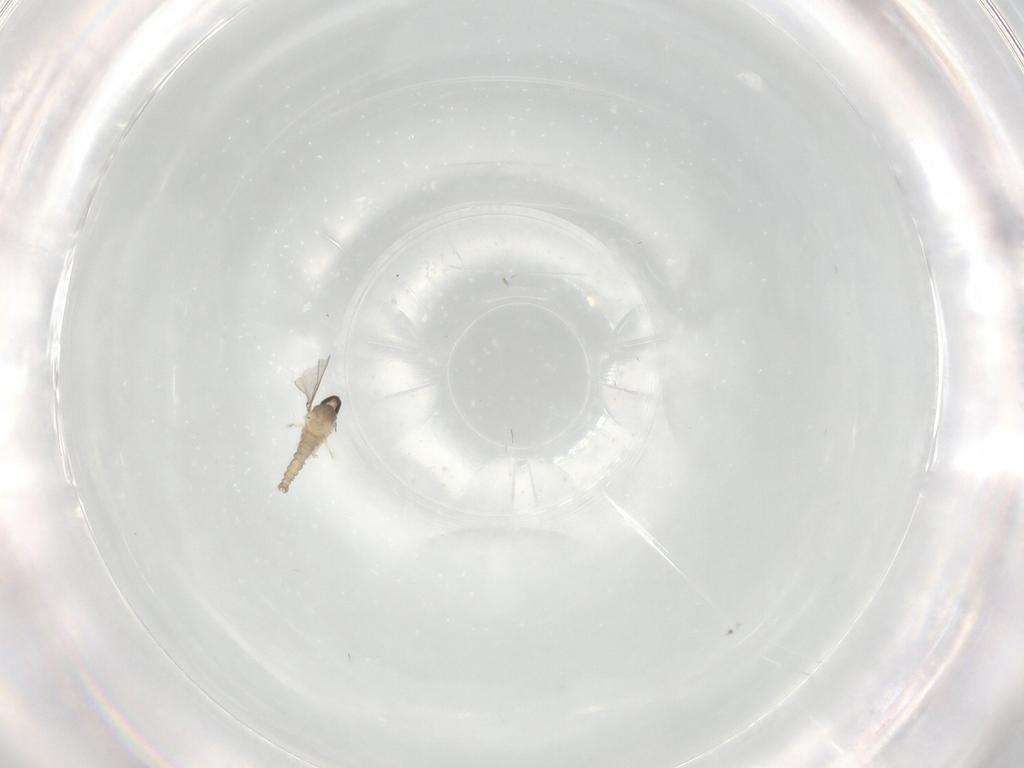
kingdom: Animalia
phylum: Arthropoda
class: Insecta
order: Diptera
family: Cecidomyiidae
